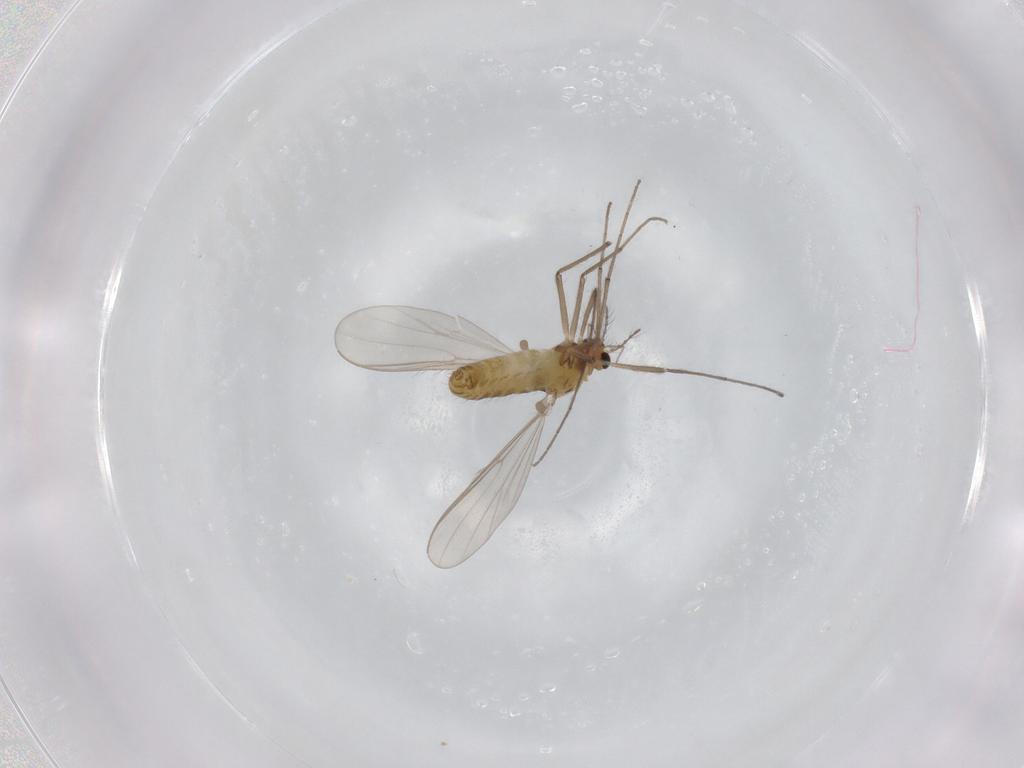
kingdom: Animalia
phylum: Arthropoda
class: Insecta
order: Diptera
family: Chironomidae
